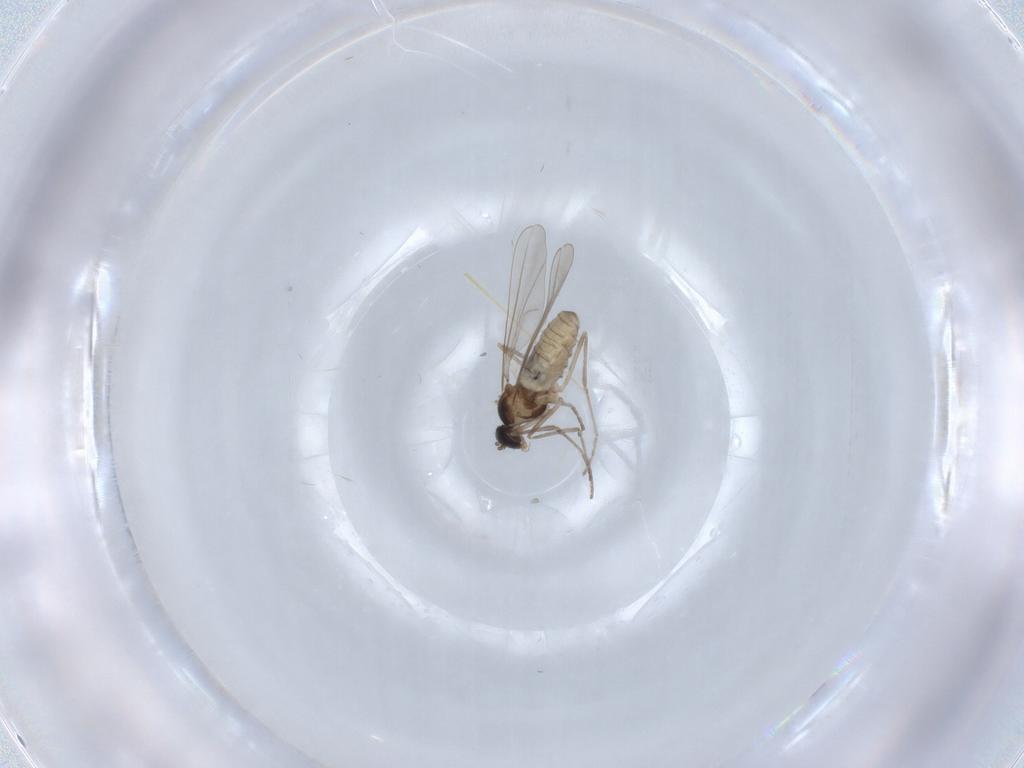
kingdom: Animalia
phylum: Arthropoda
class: Insecta
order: Diptera
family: Cecidomyiidae
